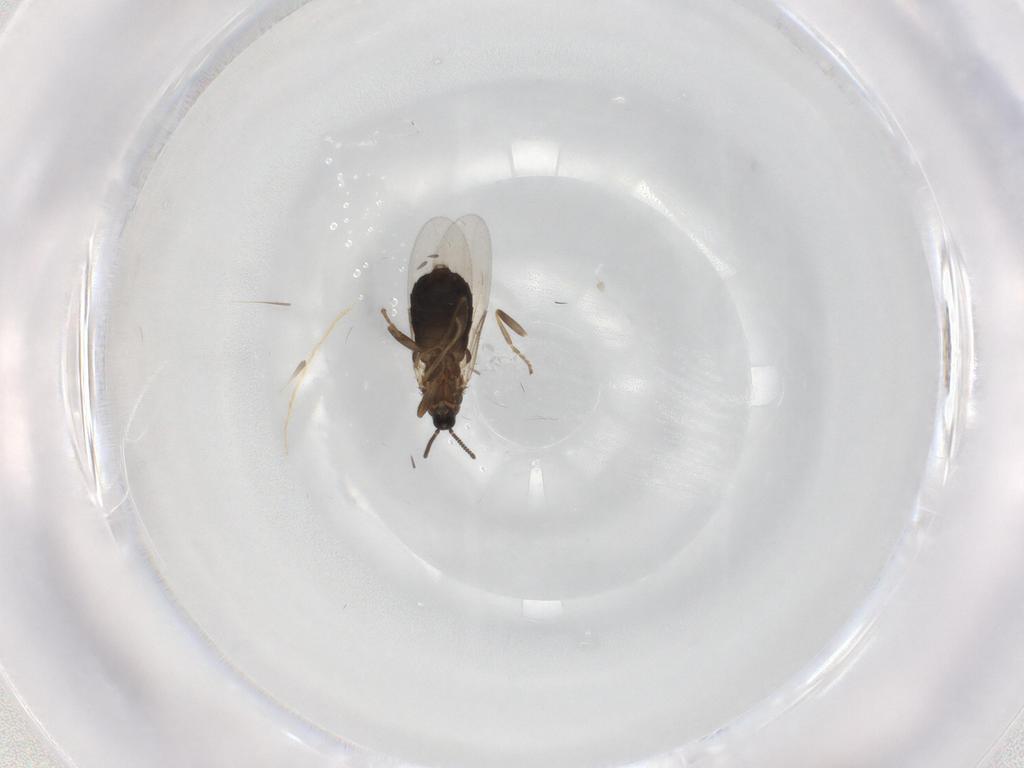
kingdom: Animalia
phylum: Arthropoda
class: Insecta
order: Diptera
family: Scatopsidae
